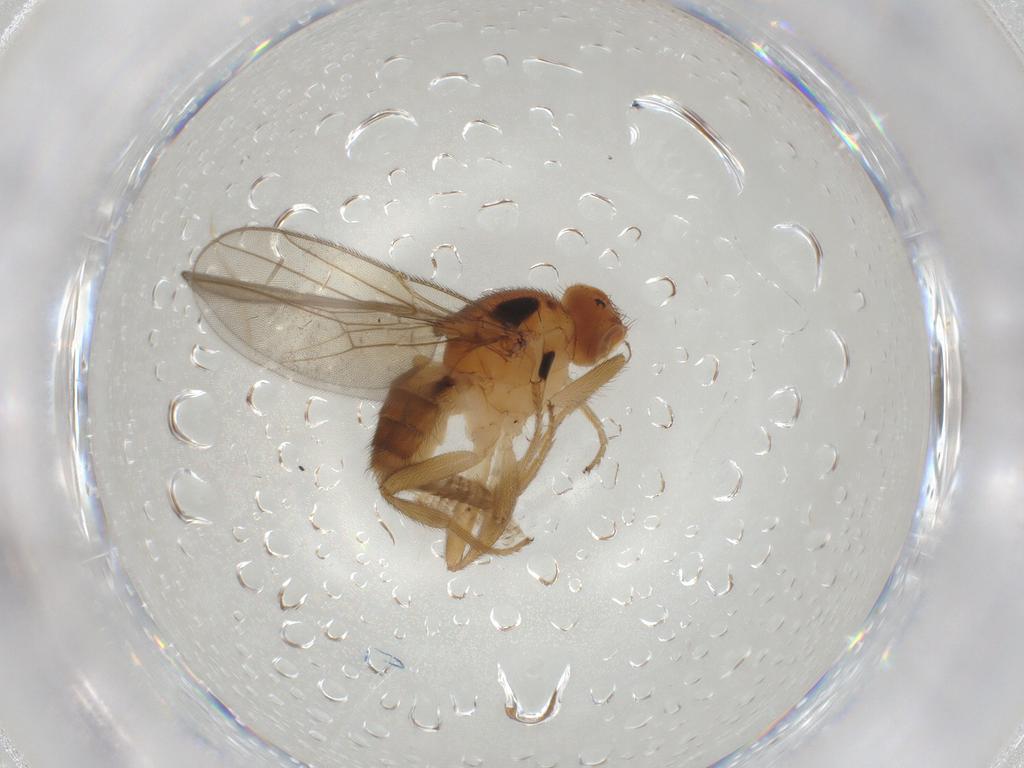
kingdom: Animalia
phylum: Arthropoda
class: Insecta
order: Diptera
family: Chloropidae
